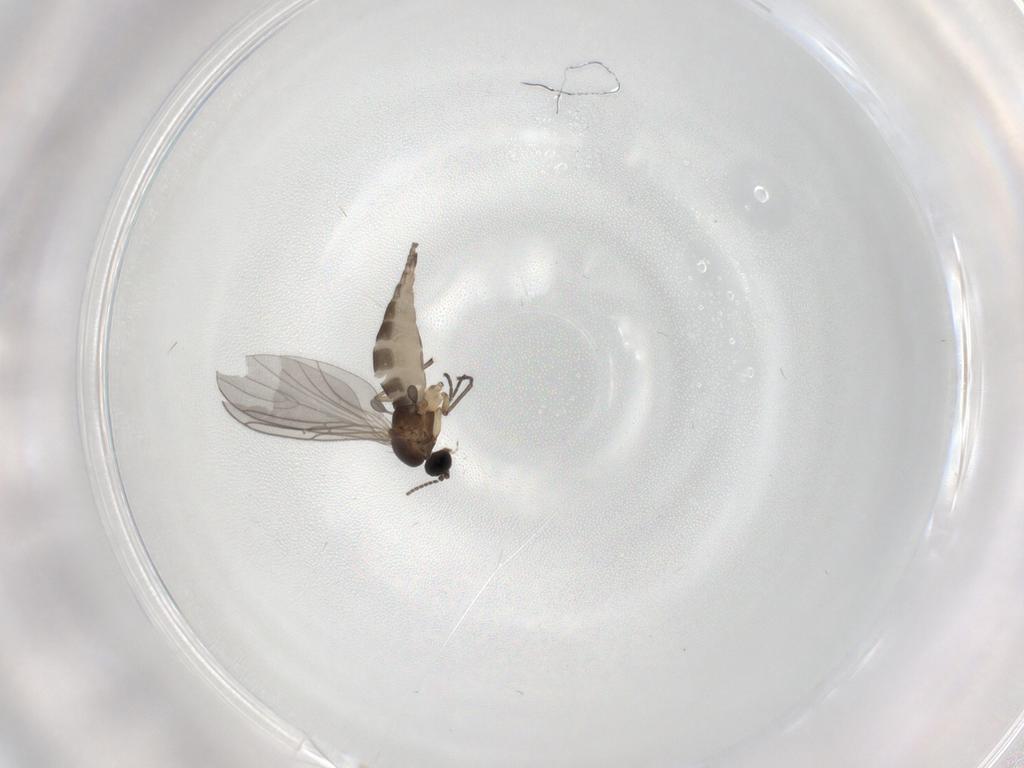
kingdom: Animalia
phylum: Arthropoda
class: Insecta
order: Diptera
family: Sciaridae
